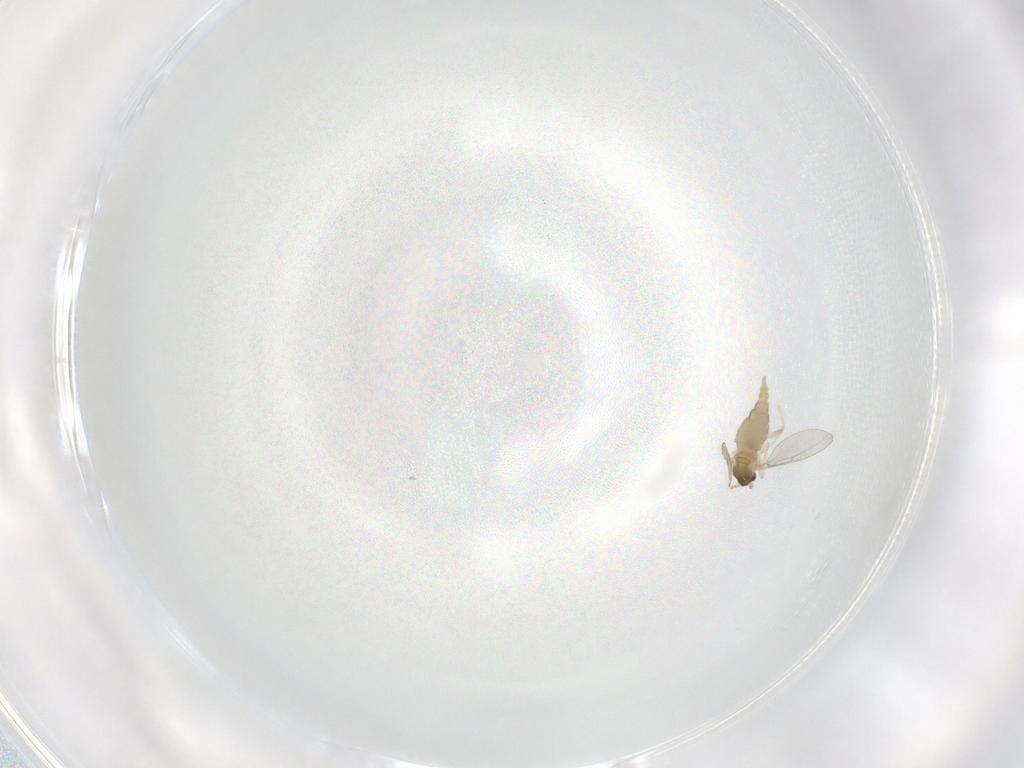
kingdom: Animalia
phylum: Arthropoda
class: Insecta
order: Diptera
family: Cecidomyiidae
